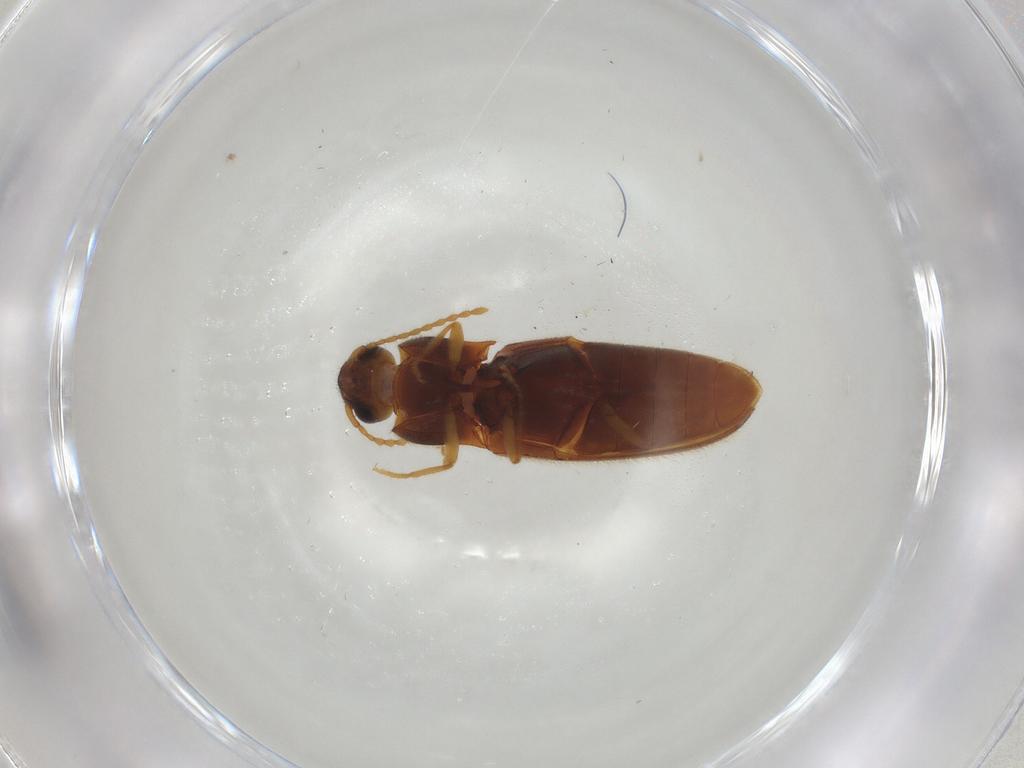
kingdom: Animalia
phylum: Arthropoda
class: Insecta
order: Coleoptera
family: Elateridae
